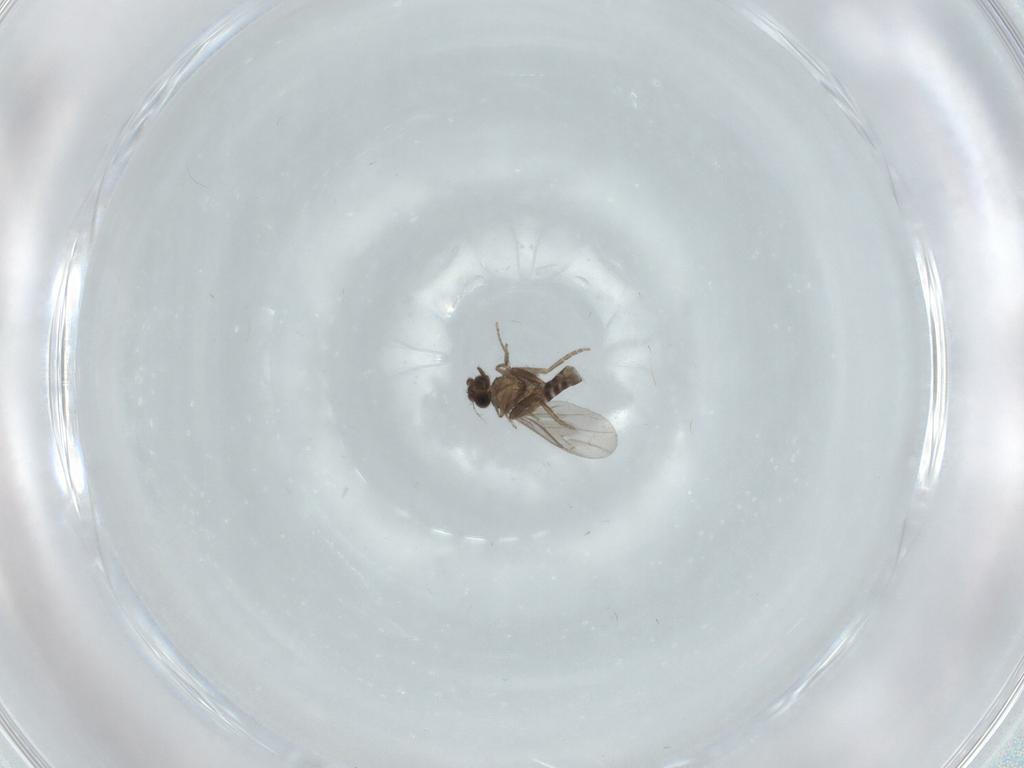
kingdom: Animalia
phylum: Arthropoda
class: Insecta
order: Diptera
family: Chironomidae
